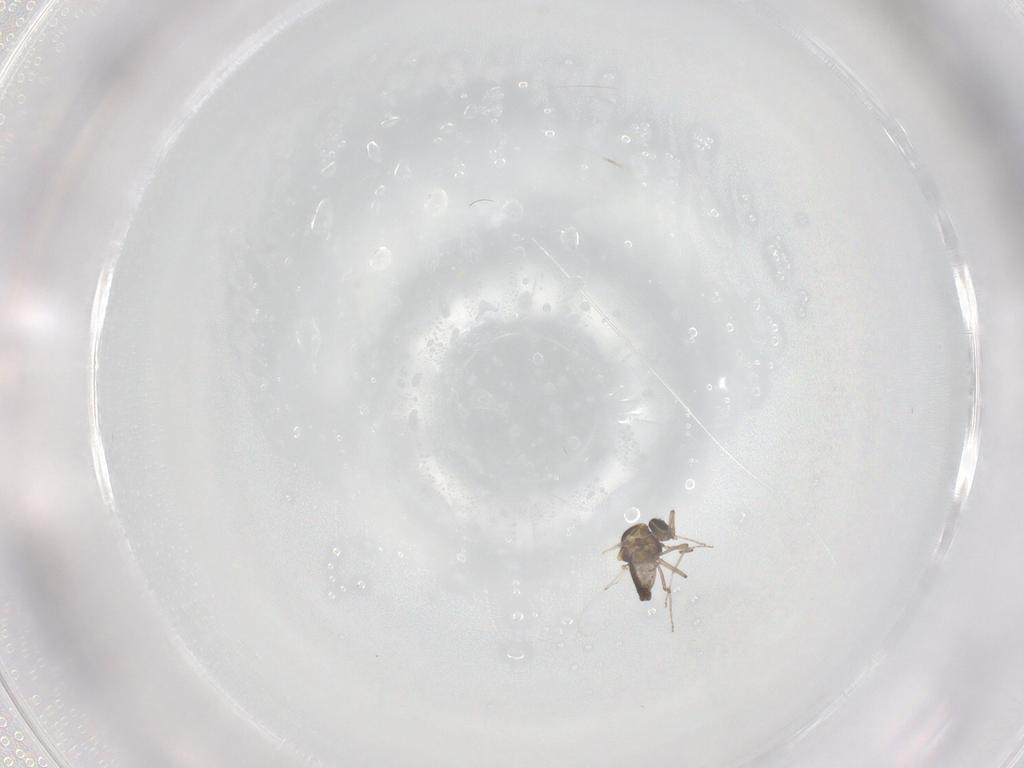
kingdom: Animalia
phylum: Arthropoda
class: Insecta
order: Diptera
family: Ceratopogonidae
